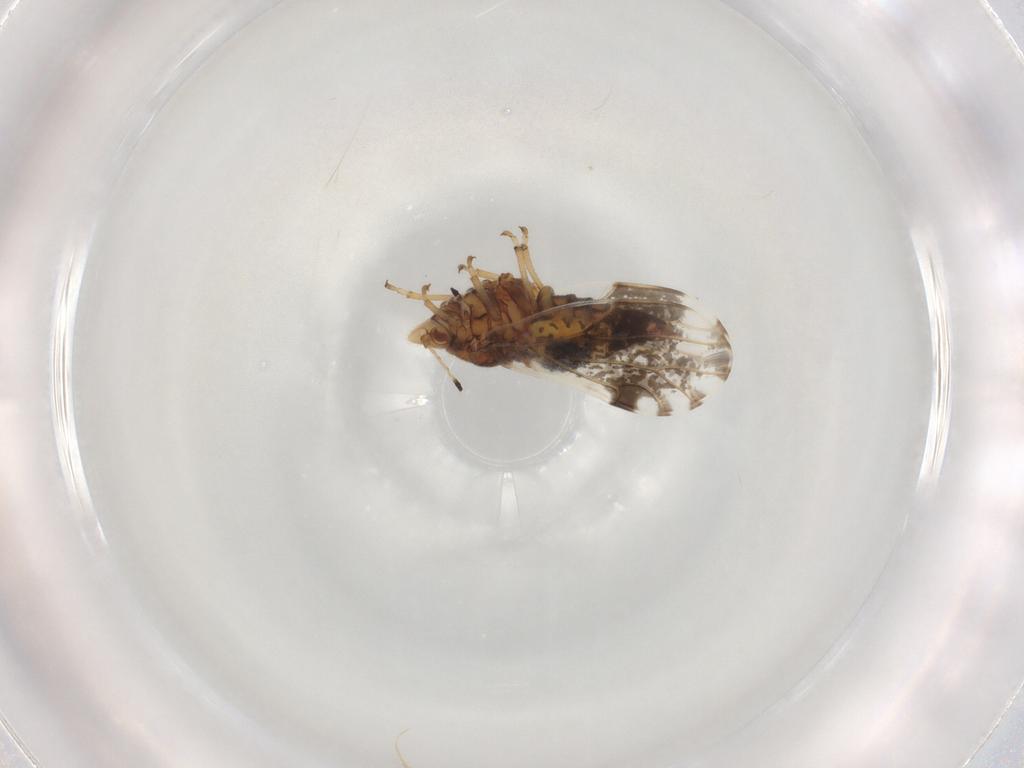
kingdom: Animalia
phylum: Arthropoda
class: Insecta
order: Hemiptera
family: Psylloidea_incertae_sedis
